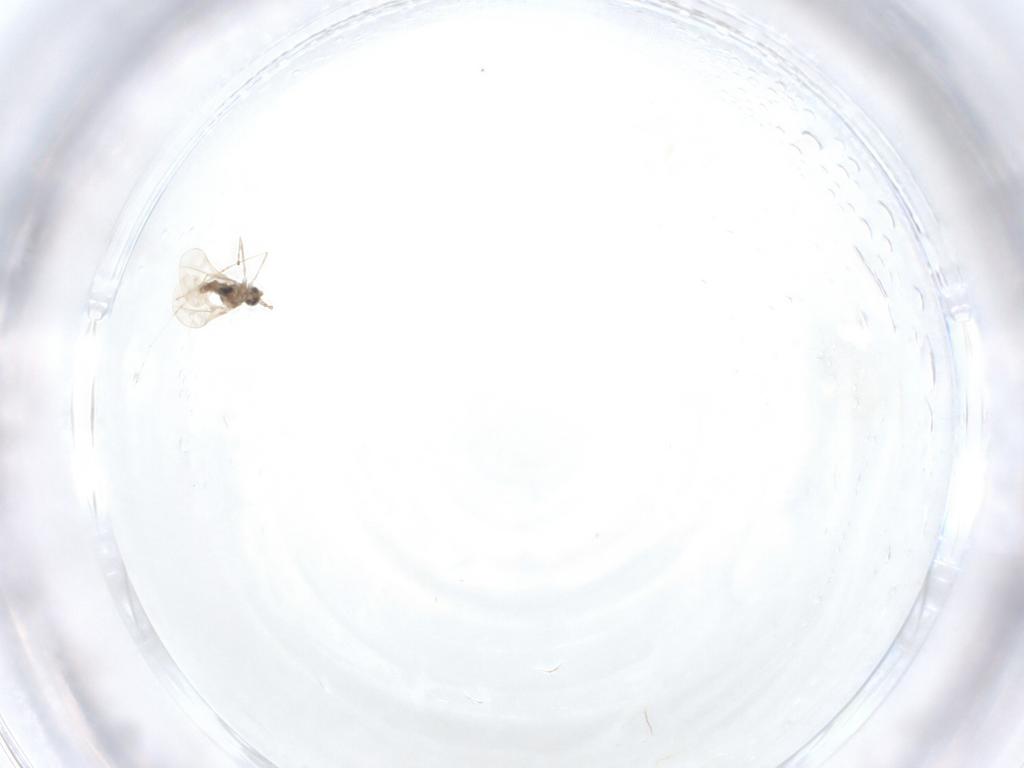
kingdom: Animalia
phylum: Arthropoda
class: Insecta
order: Diptera
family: Cecidomyiidae
